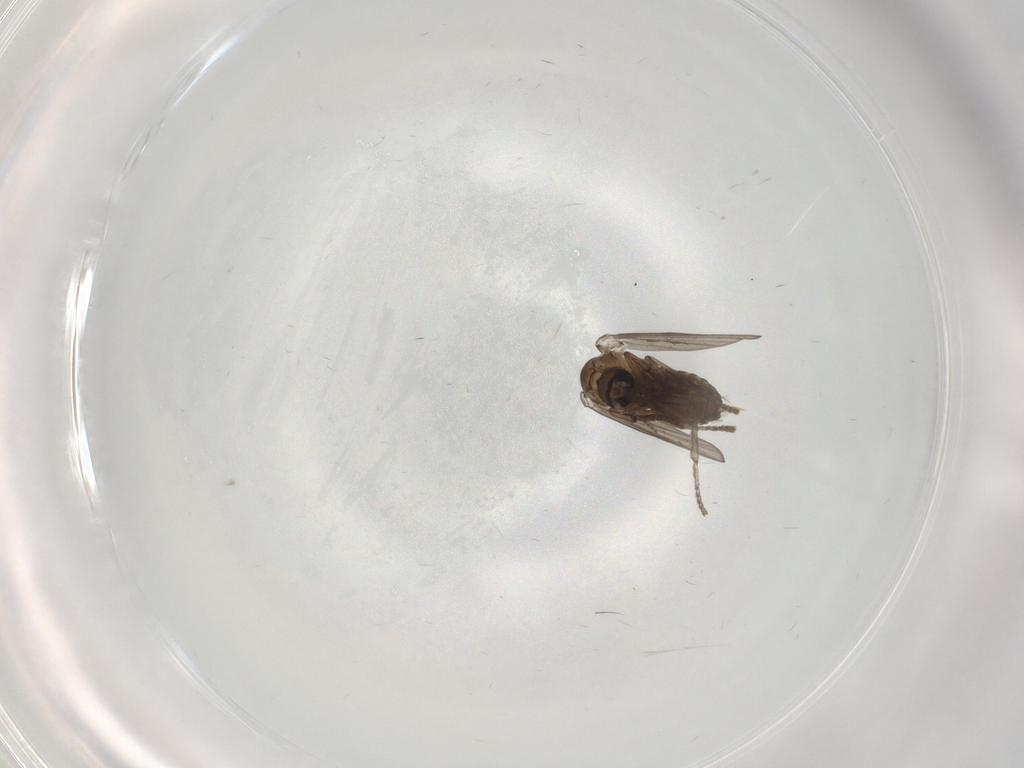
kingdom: Animalia
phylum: Arthropoda
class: Insecta
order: Diptera
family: Psychodidae
